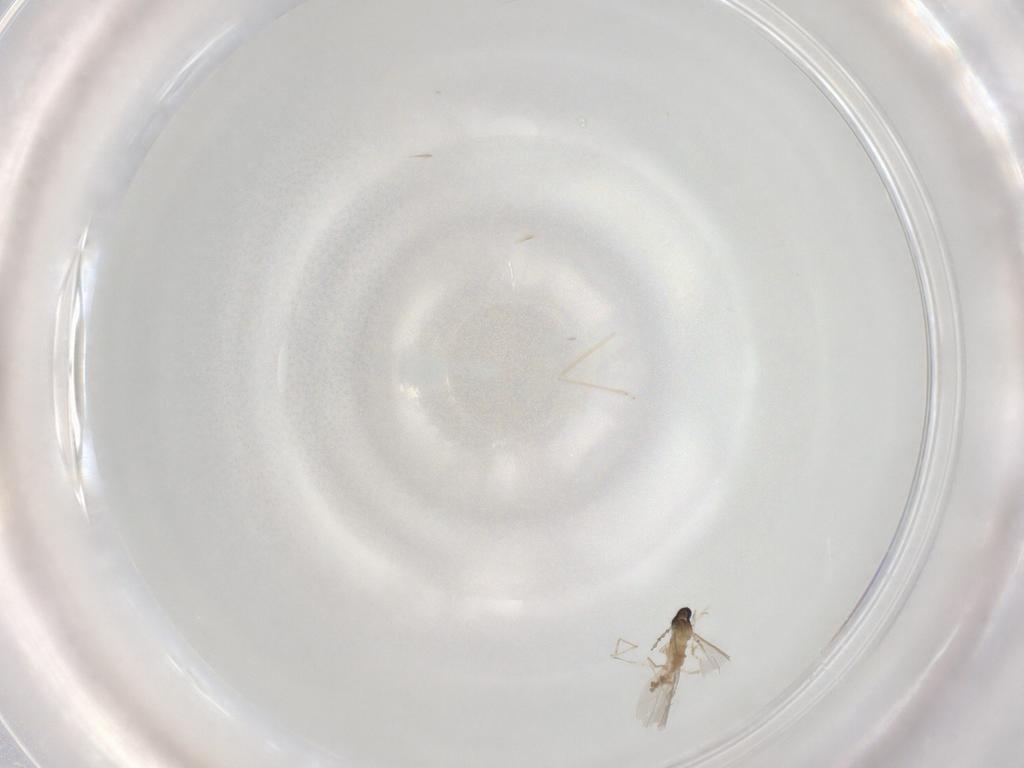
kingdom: Animalia
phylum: Arthropoda
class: Insecta
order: Diptera
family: Cecidomyiidae
